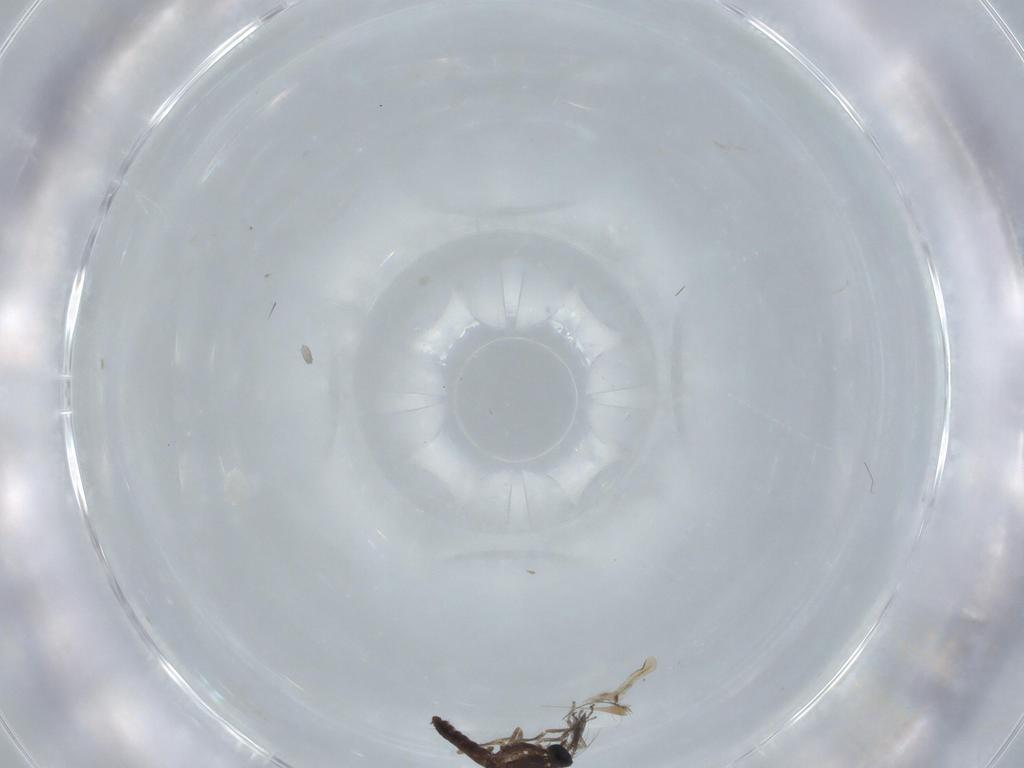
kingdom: Animalia
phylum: Arthropoda
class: Insecta
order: Diptera
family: Ceratopogonidae
